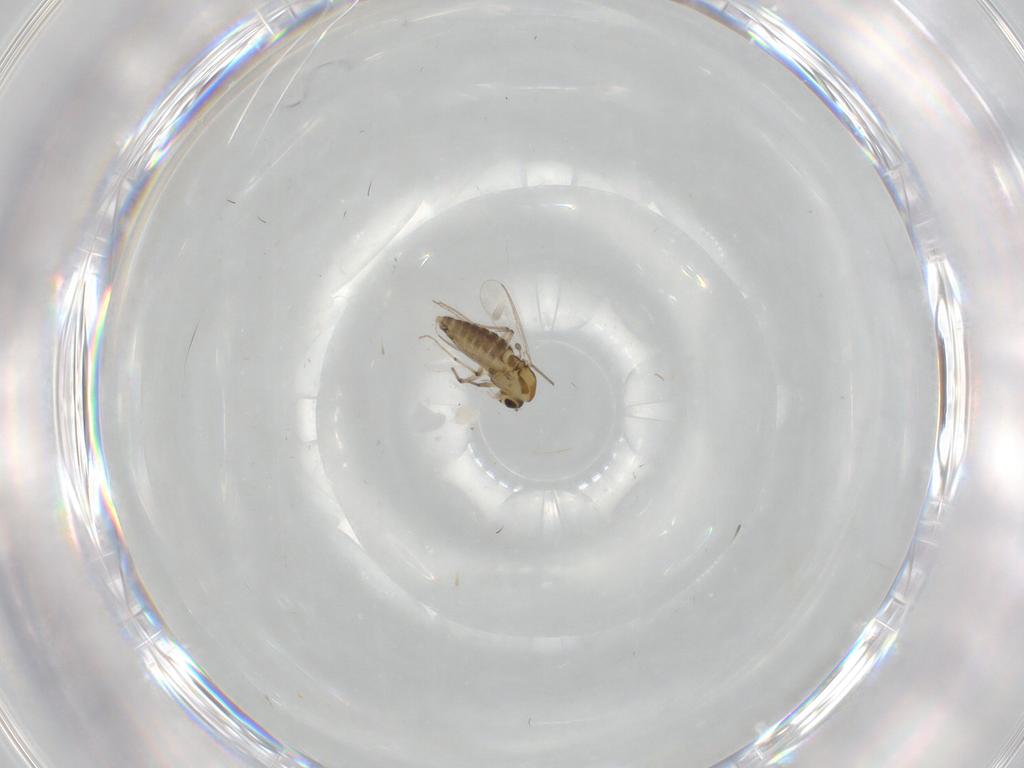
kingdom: Animalia
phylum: Arthropoda
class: Insecta
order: Diptera
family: Chironomidae
